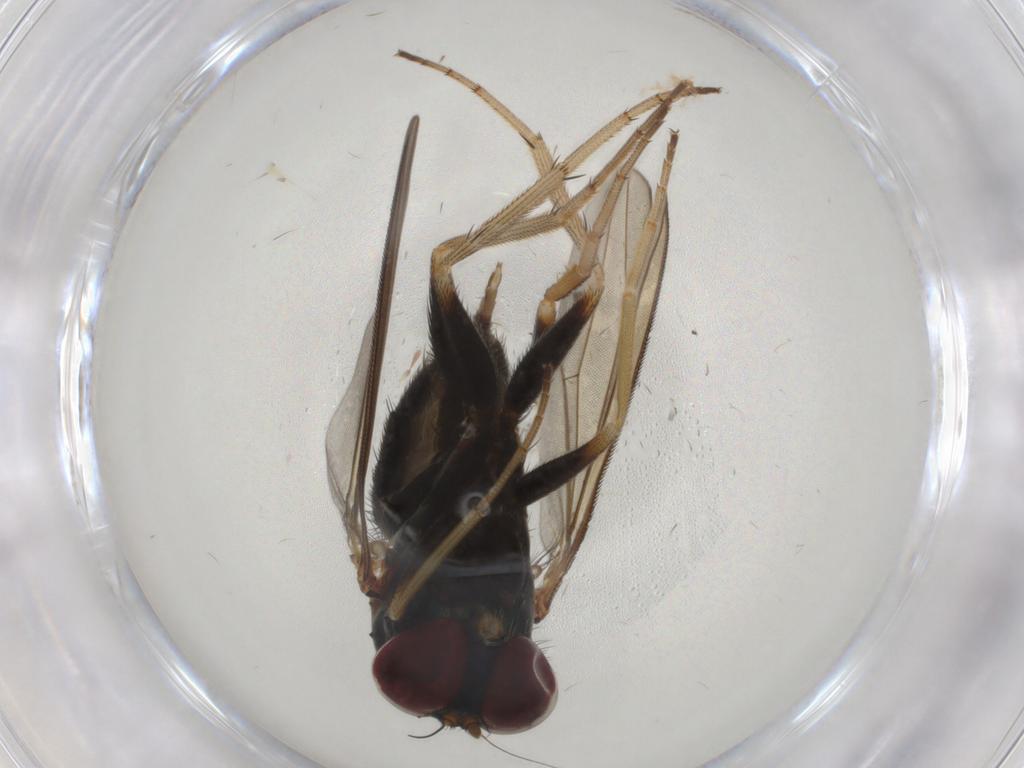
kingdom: Animalia
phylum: Arthropoda
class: Insecta
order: Diptera
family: Dolichopodidae
